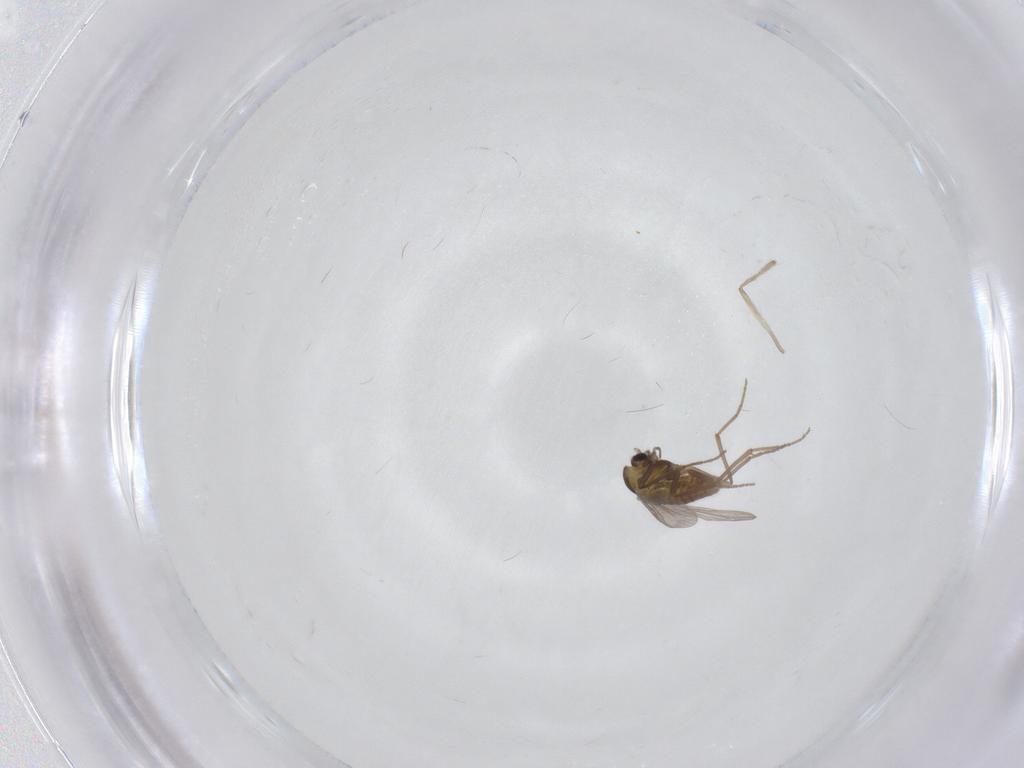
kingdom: Animalia
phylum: Arthropoda
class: Insecta
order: Diptera
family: Chironomidae
